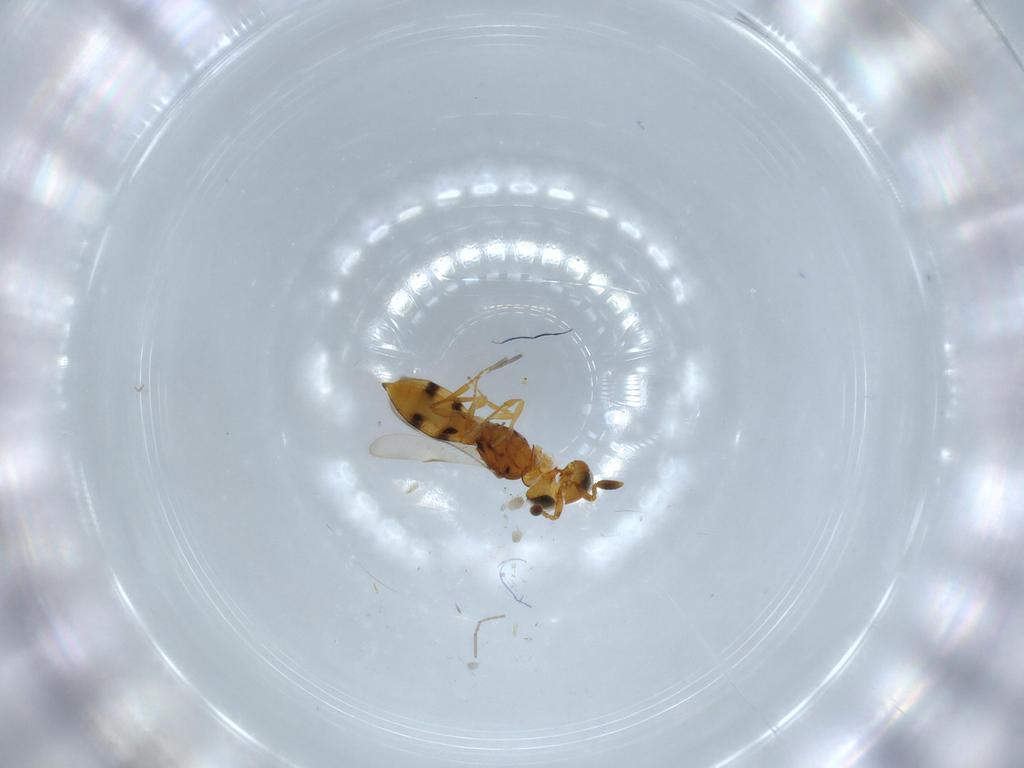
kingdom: Animalia
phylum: Arthropoda
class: Insecta
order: Hymenoptera
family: Scelionidae
